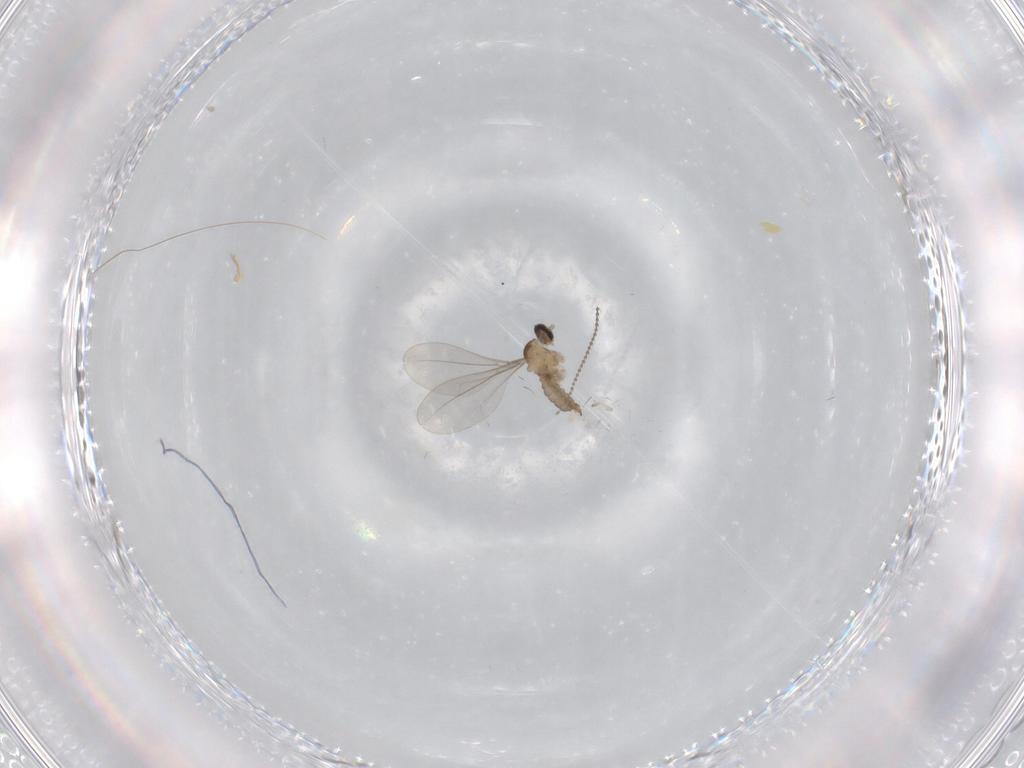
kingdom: Animalia
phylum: Arthropoda
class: Insecta
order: Diptera
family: Cecidomyiidae
